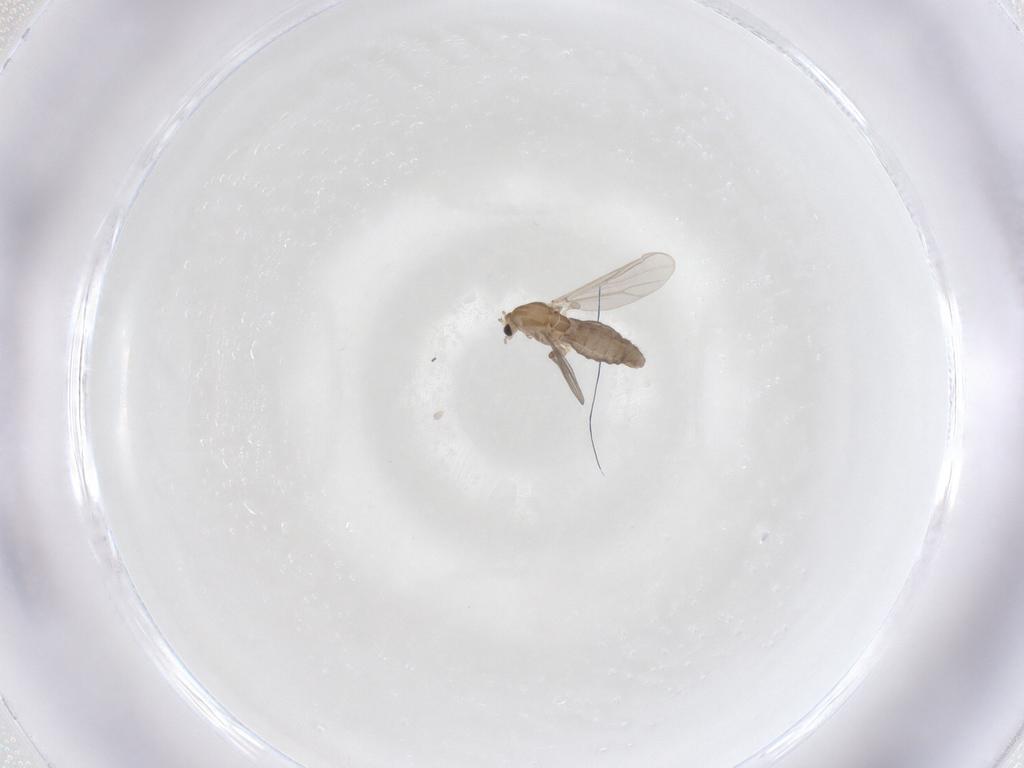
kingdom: Animalia
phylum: Arthropoda
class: Insecta
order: Diptera
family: Chironomidae
